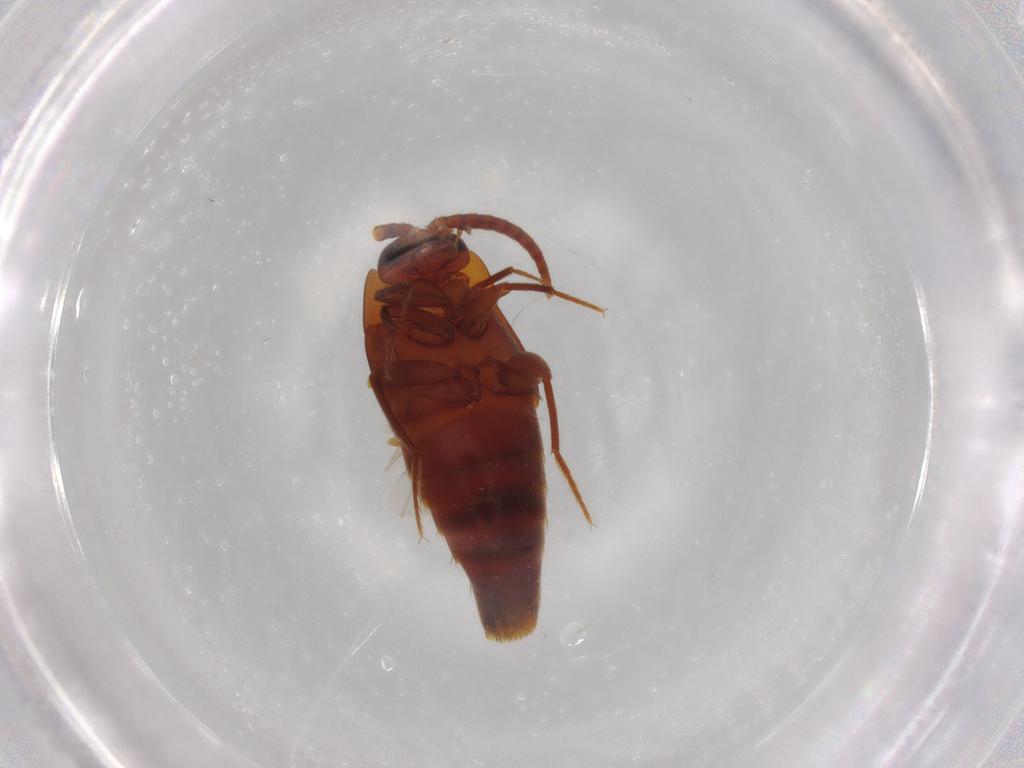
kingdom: Animalia
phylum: Arthropoda
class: Insecta
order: Coleoptera
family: Staphylinidae
